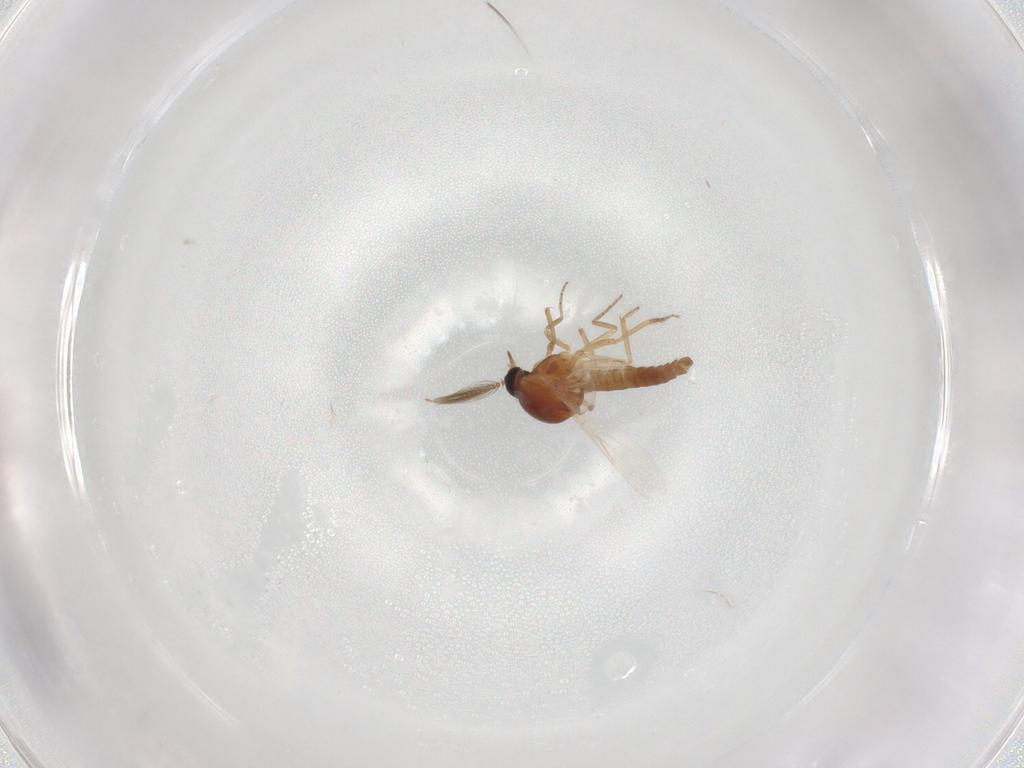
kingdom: Animalia
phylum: Arthropoda
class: Insecta
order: Diptera
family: Ceratopogonidae
